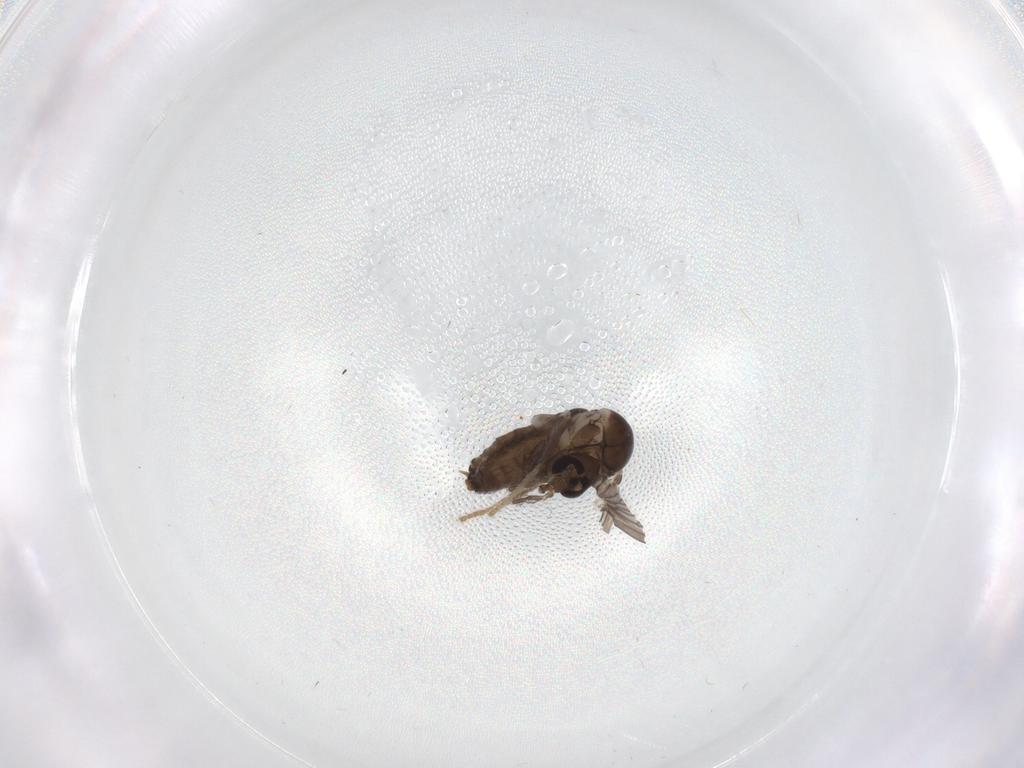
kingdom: Animalia
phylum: Arthropoda
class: Insecta
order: Diptera
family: Psychodidae
